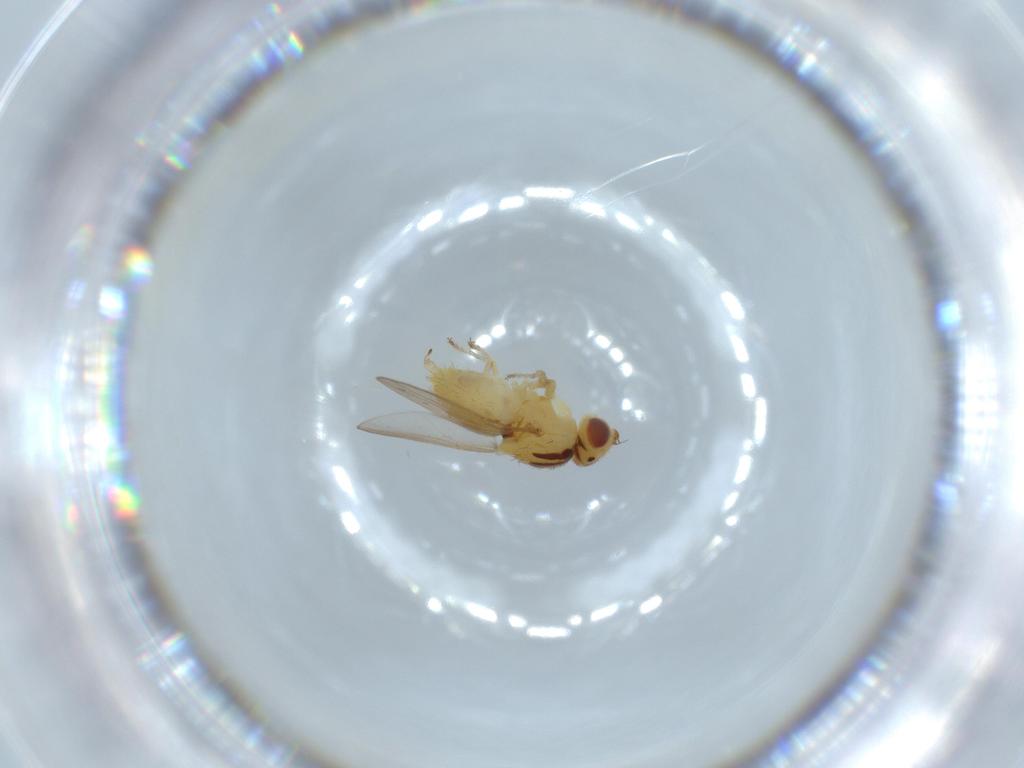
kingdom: Animalia
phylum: Arthropoda
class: Insecta
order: Diptera
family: Chloropidae
